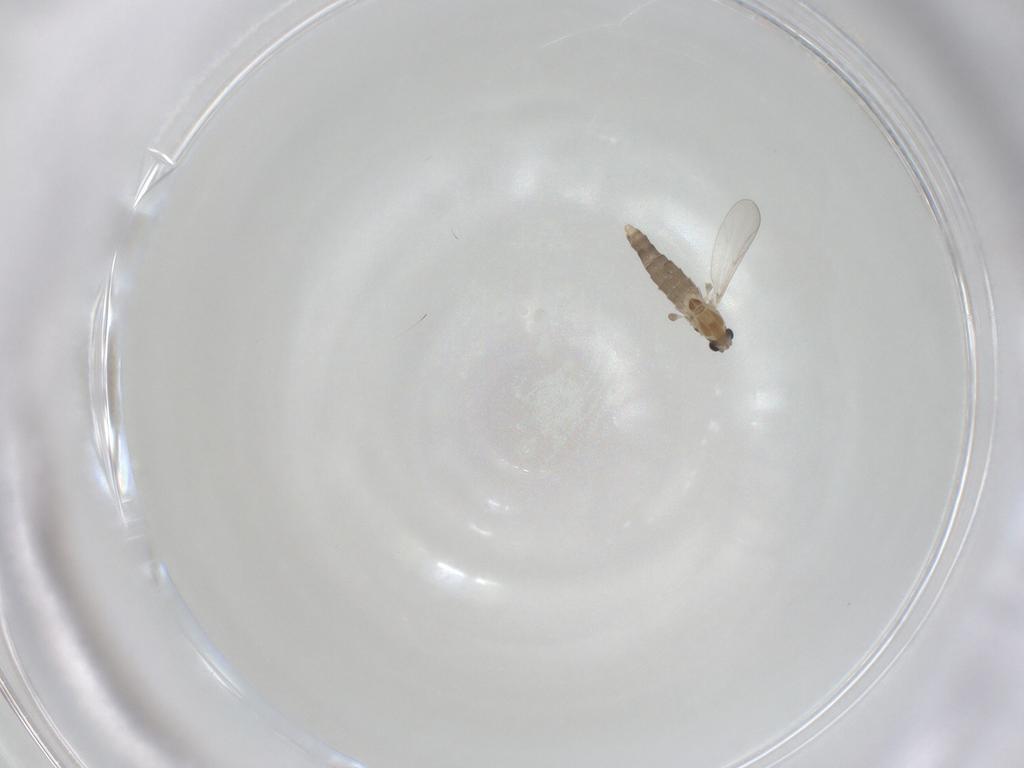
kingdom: Animalia
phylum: Arthropoda
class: Insecta
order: Diptera
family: Chironomidae
